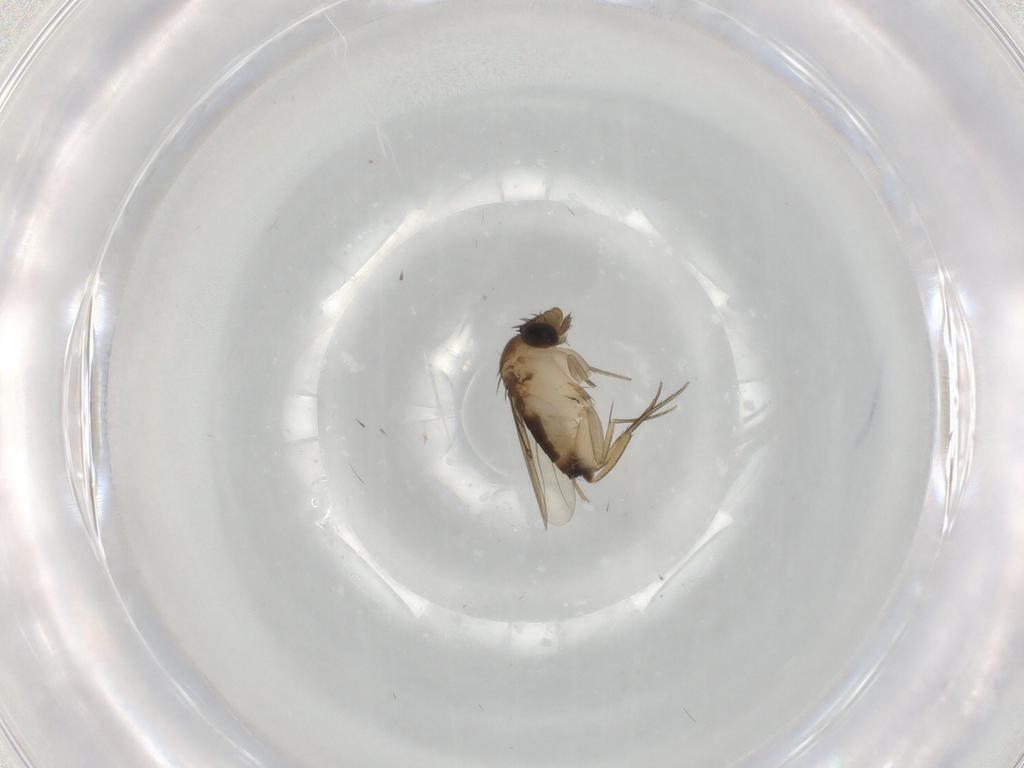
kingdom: Animalia
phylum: Arthropoda
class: Insecta
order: Diptera
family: Phoridae
